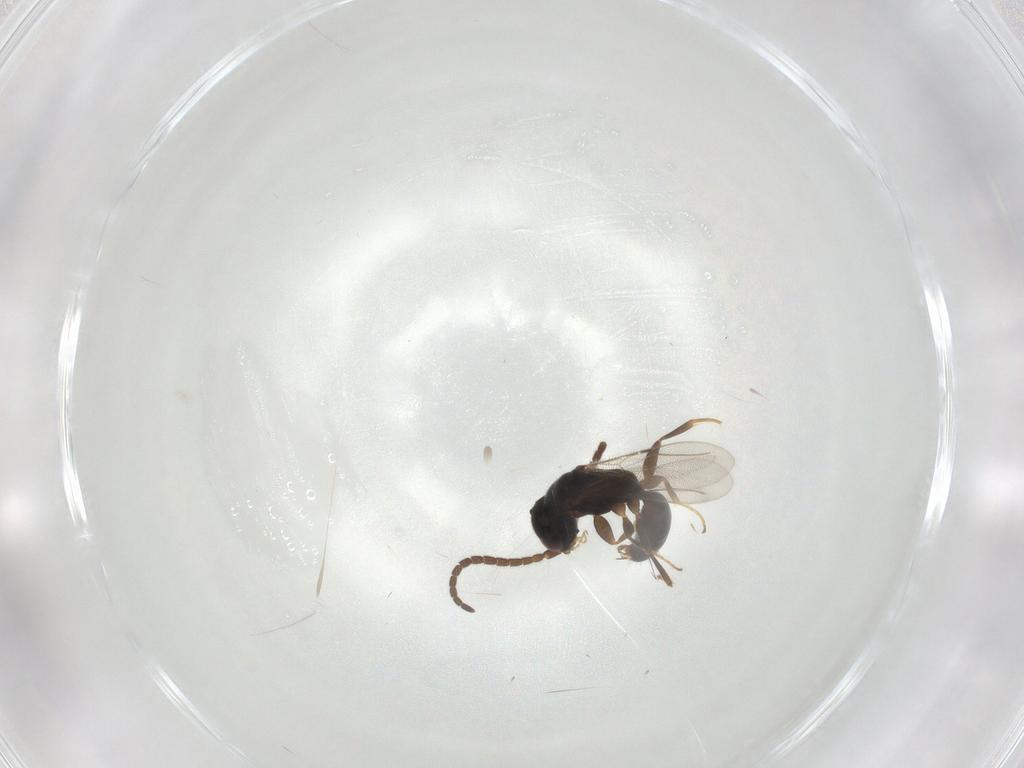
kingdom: Animalia
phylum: Arthropoda
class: Insecta
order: Hymenoptera
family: Bethylidae
